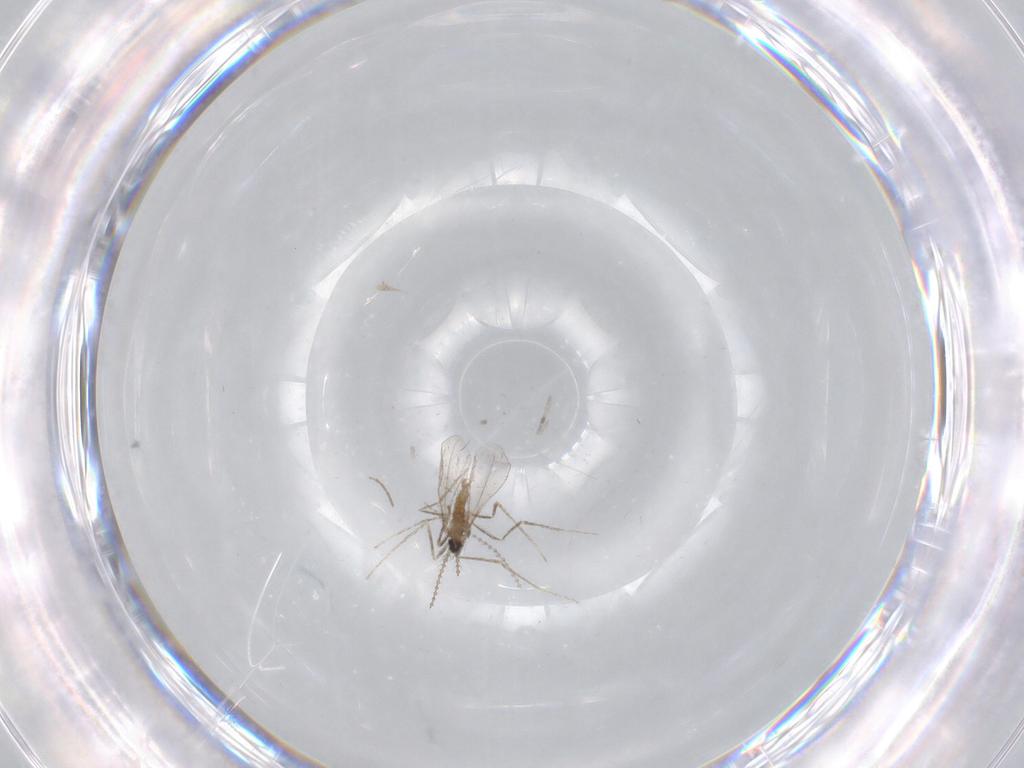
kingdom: Animalia
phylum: Arthropoda
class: Insecta
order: Diptera
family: Chironomidae
